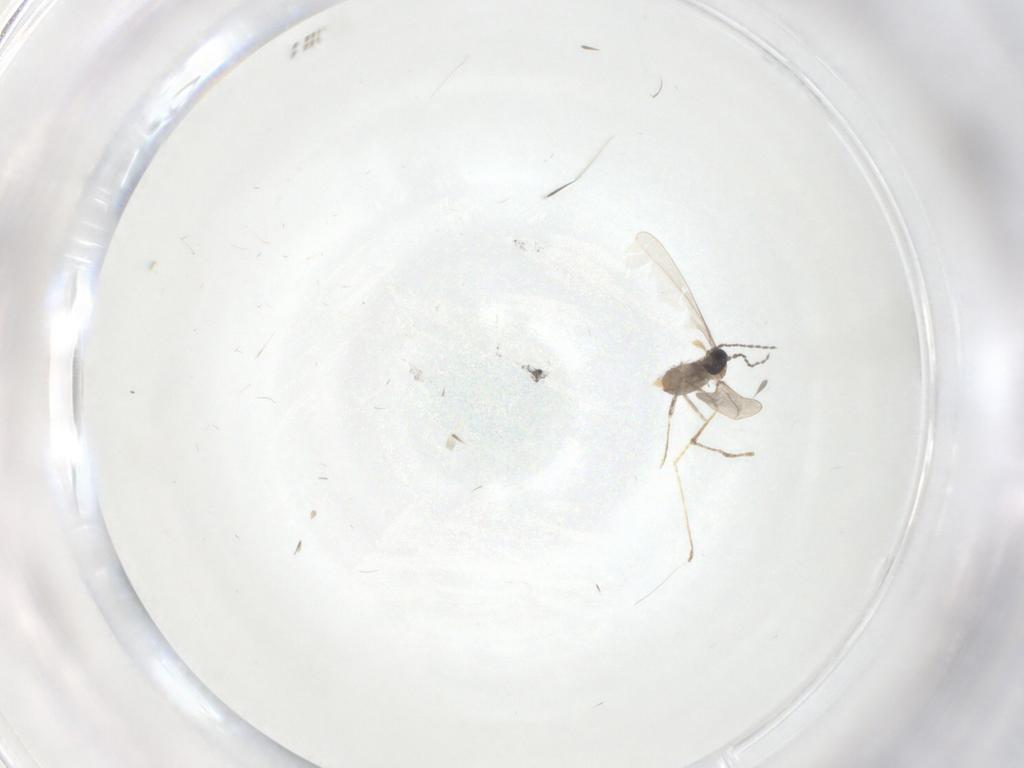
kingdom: Animalia
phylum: Arthropoda
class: Insecta
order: Diptera
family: Cecidomyiidae
